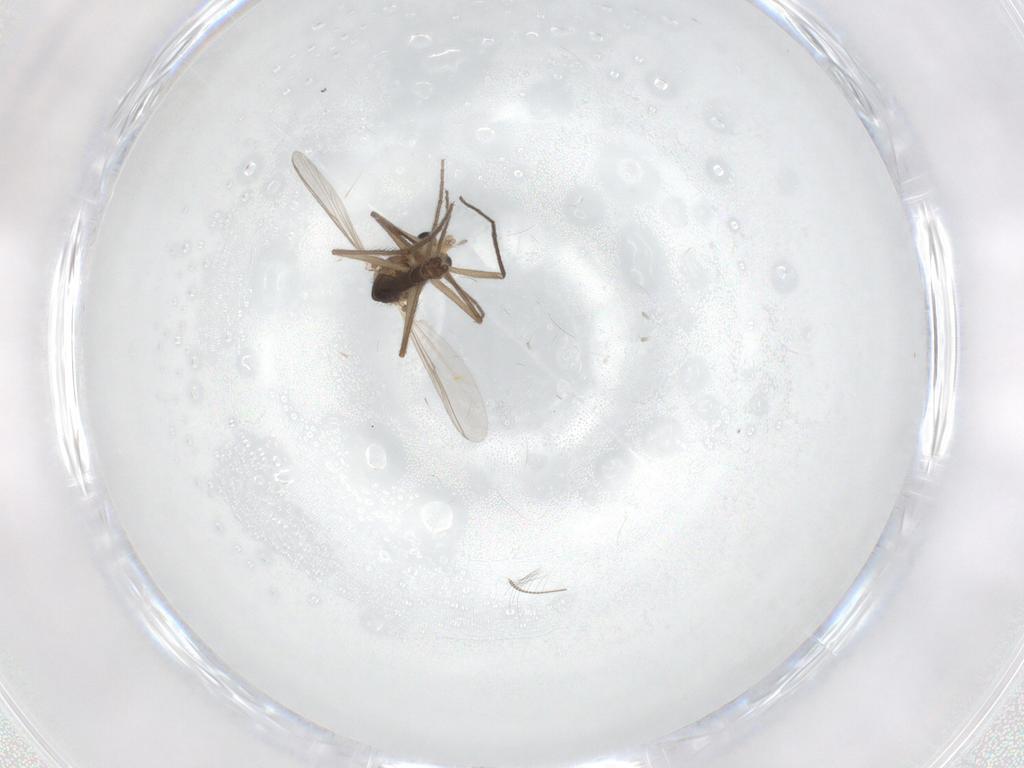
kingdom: Animalia
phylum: Arthropoda
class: Insecta
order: Diptera
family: Chironomidae
